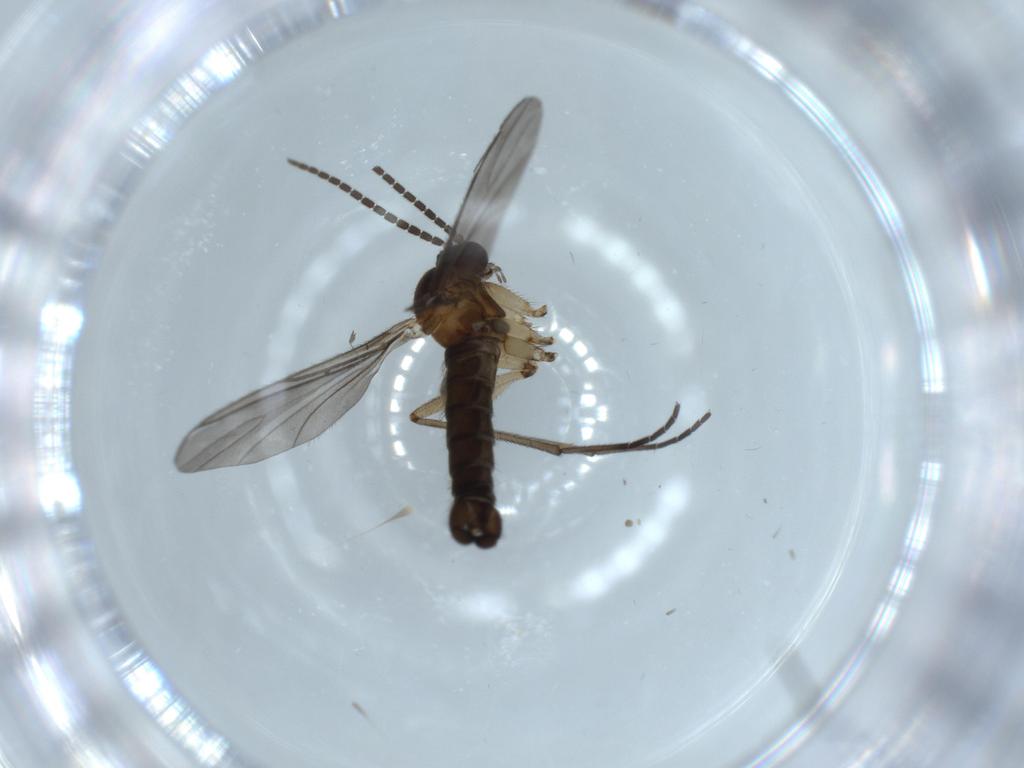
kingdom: Animalia
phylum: Arthropoda
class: Insecta
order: Diptera
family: Sciaridae
